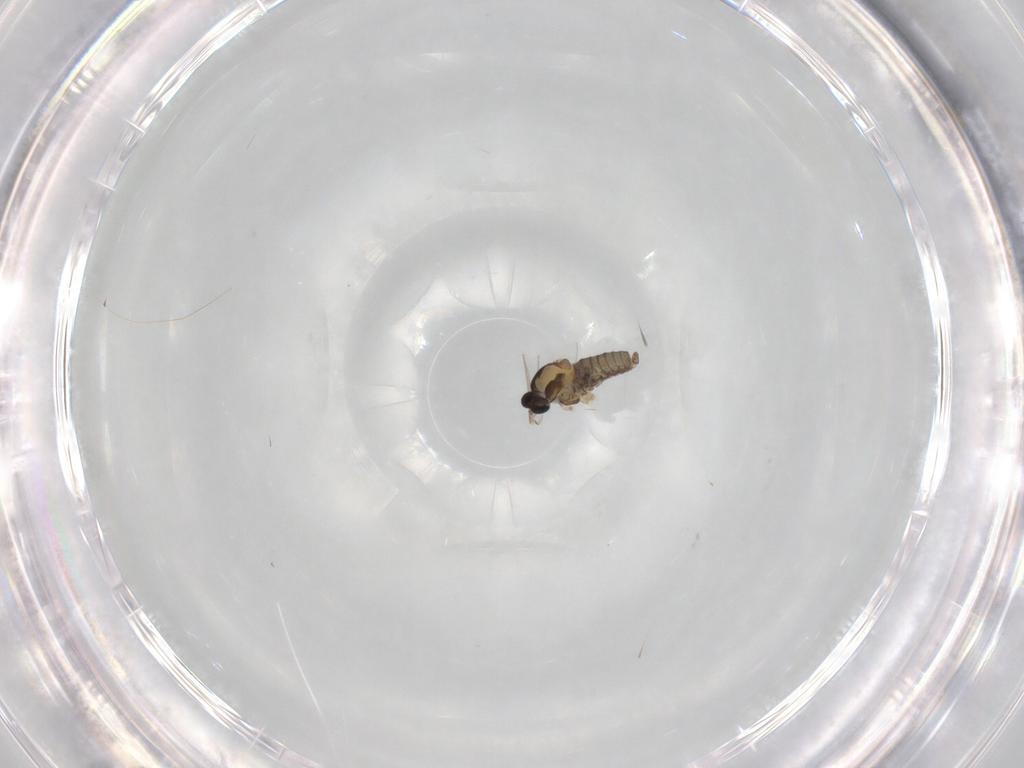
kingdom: Animalia
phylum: Arthropoda
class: Insecta
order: Diptera
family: Cecidomyiidae
